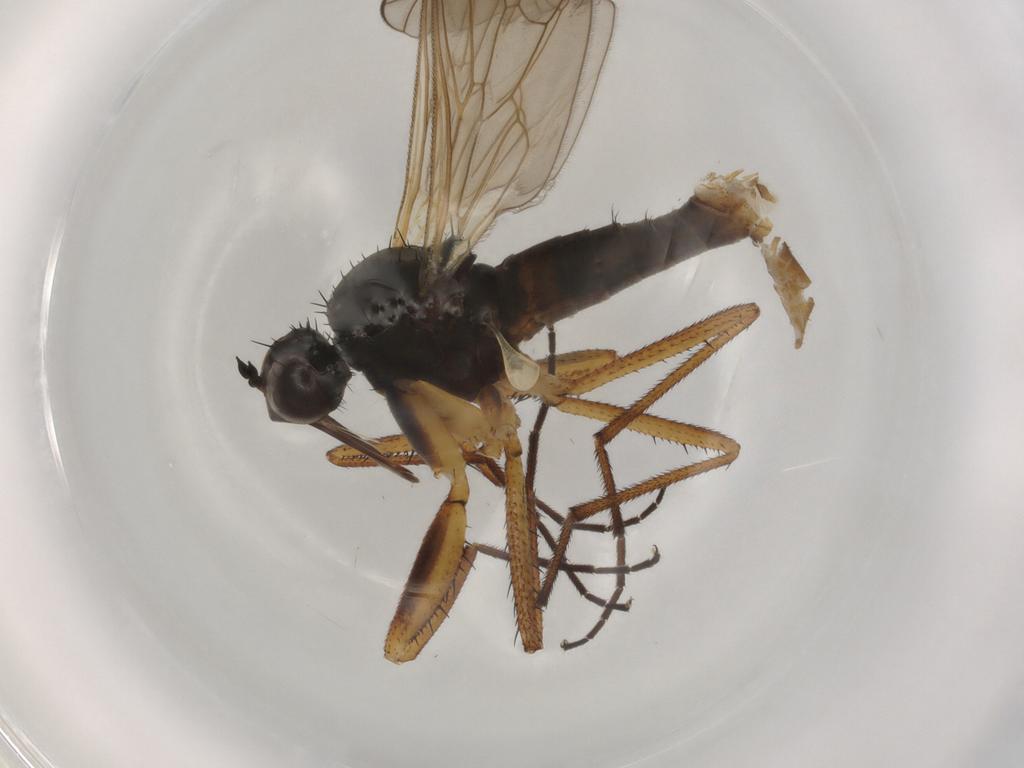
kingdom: Animalia
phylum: Arthropoda
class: Insecta
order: Diptera
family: Empididae
